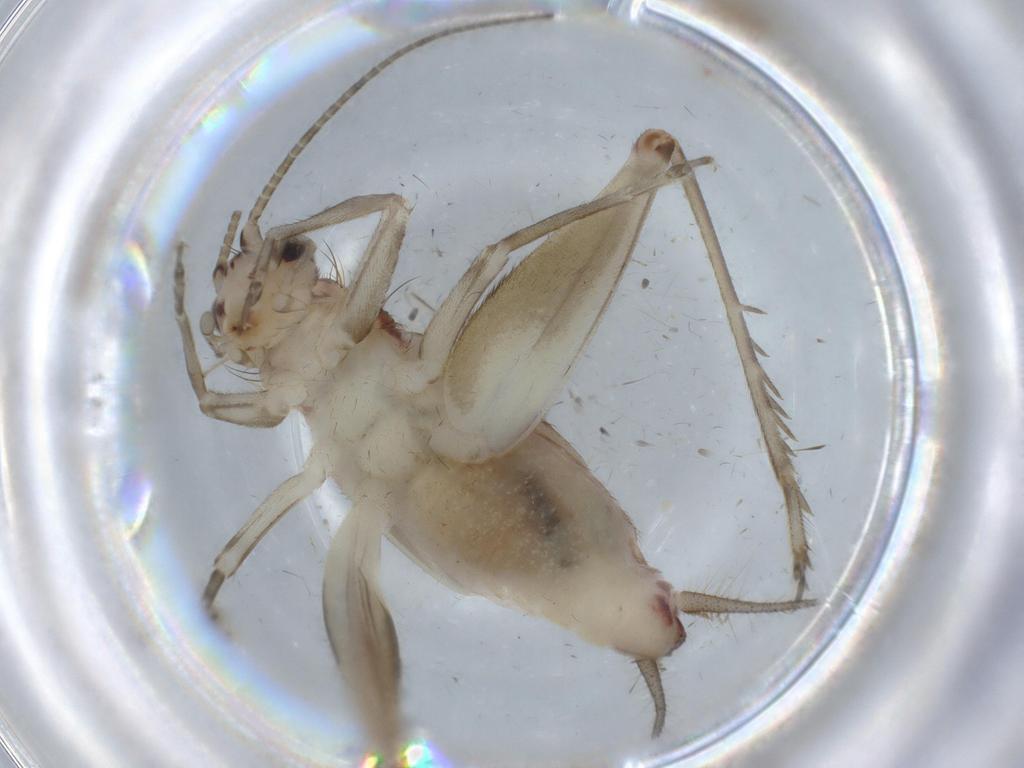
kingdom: Animalia
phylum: Arthropoda
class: Insecta
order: Orthoptera
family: Trigonidiidae
